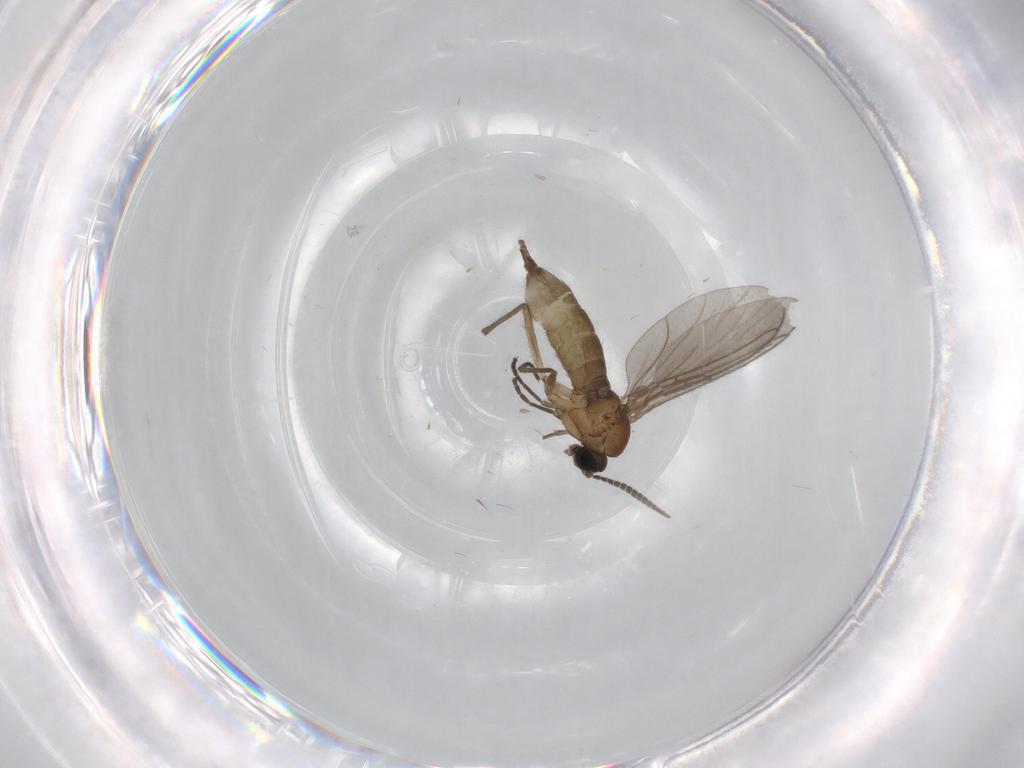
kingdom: Animalia
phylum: Arthropoda
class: Insecta
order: Diptera
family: Sciaridae
